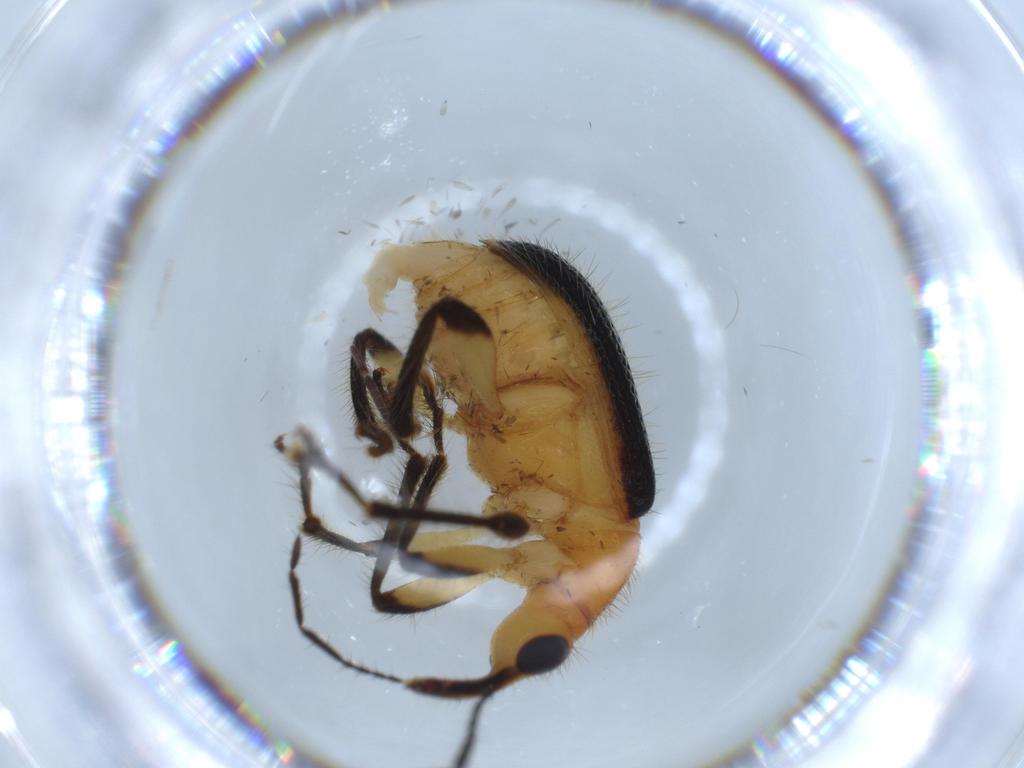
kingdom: Animalia
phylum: Arthropoda
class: Insecta
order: Coleoptera
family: Attelabidae
